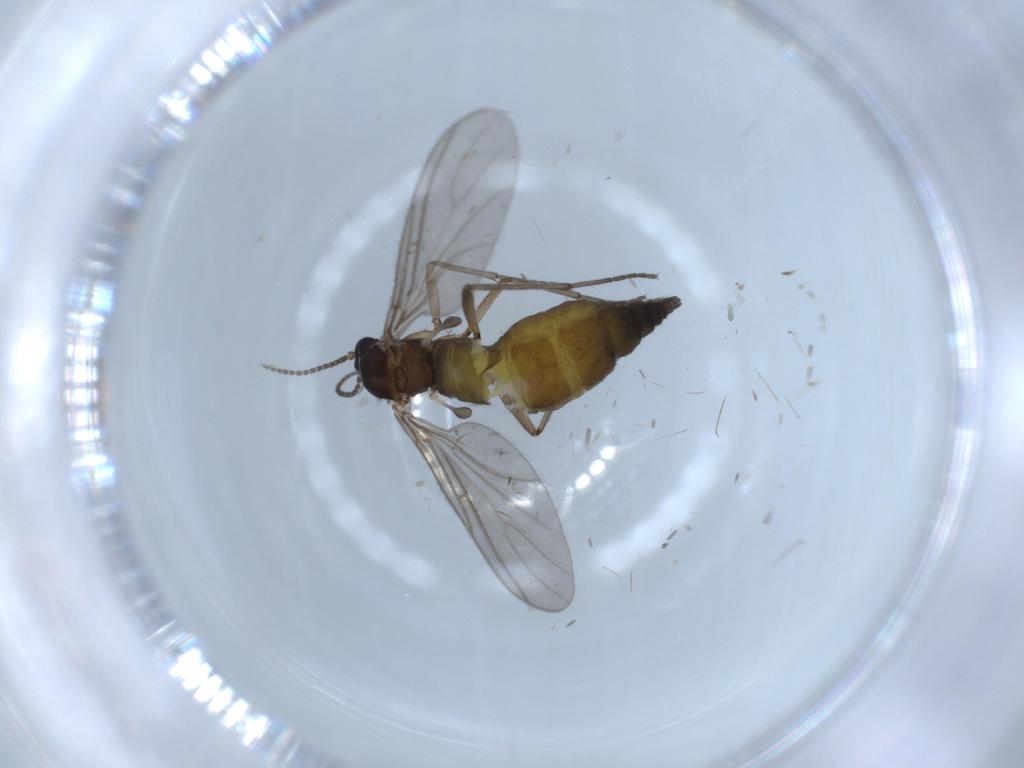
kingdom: Animalia
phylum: Arthropoda
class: Insecta
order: Diptera
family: Sciaridae
